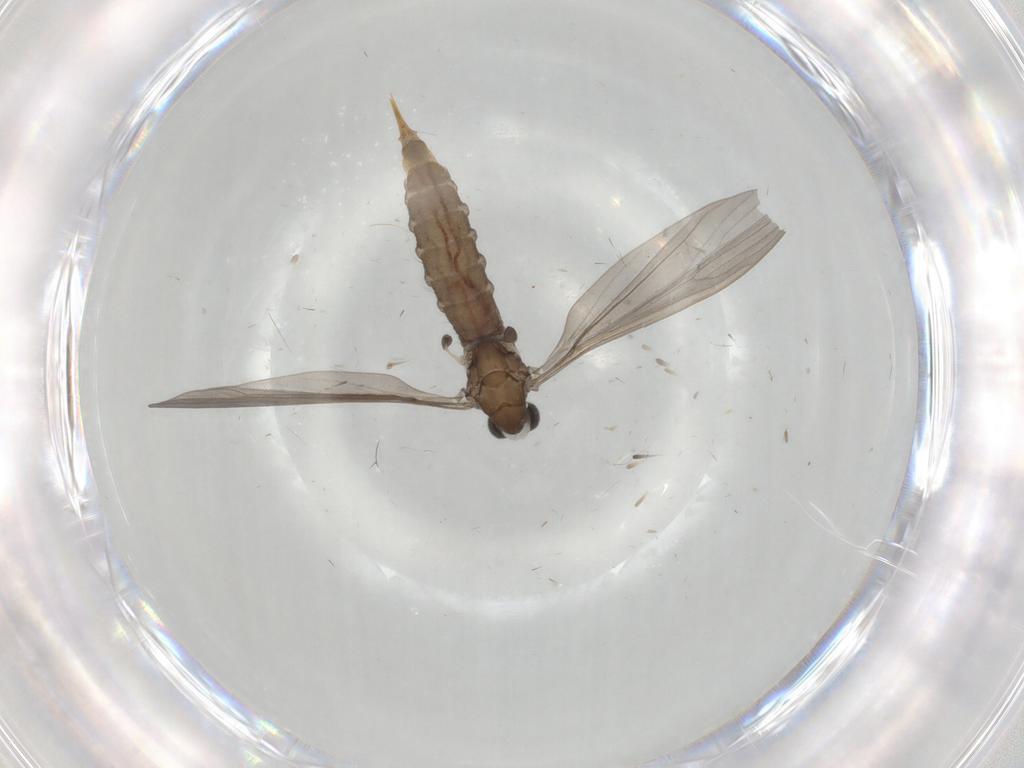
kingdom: Animalia
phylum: Arthropoda
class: Insecta
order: Diptera
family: Limoniidae
